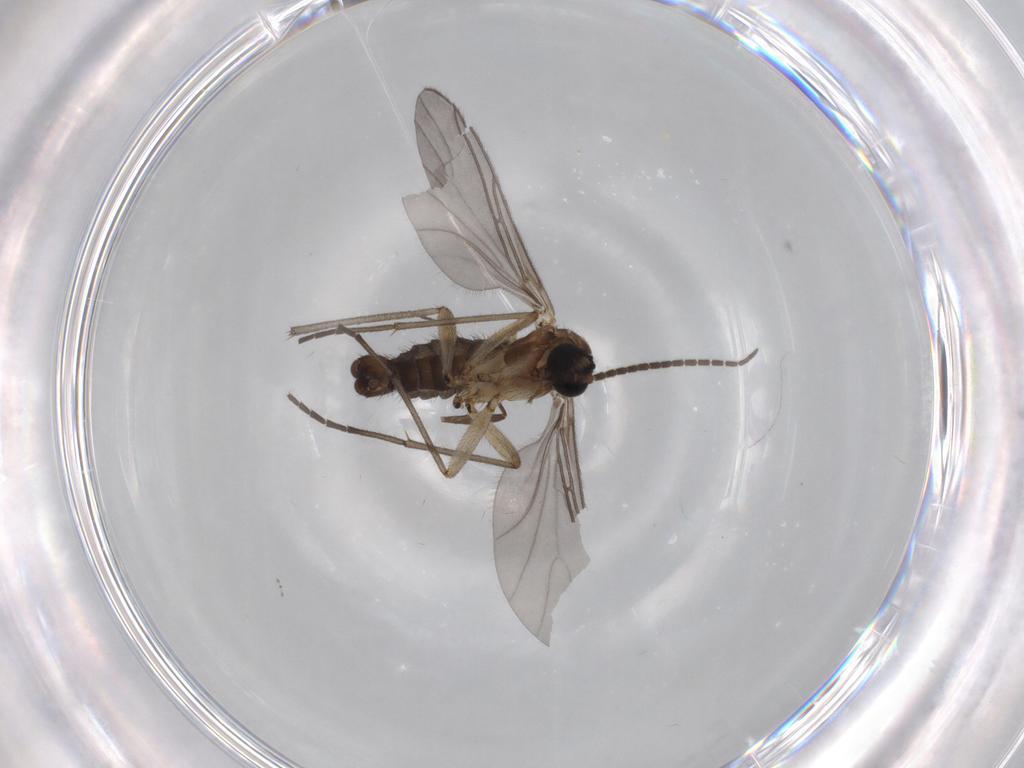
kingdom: Animalia
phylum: Arthropoda
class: Insecta
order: Diptera
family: Sciaridae
